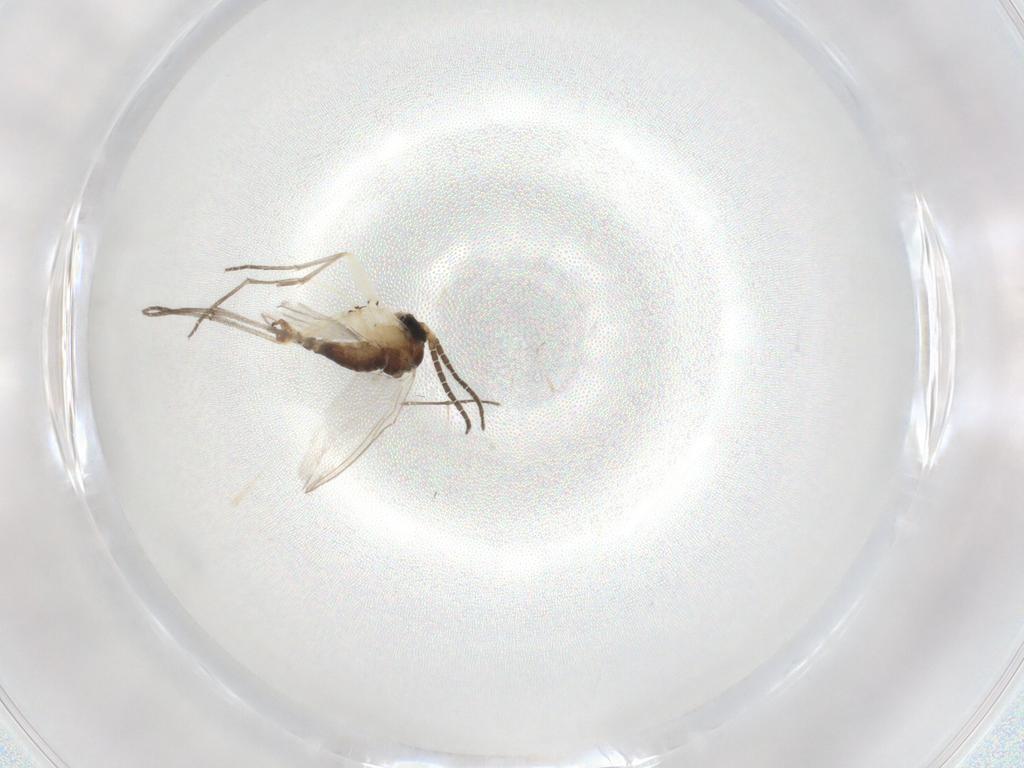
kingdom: Animalia
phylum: Arthropoda
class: Insecta
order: Diptera
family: Sciaridae
